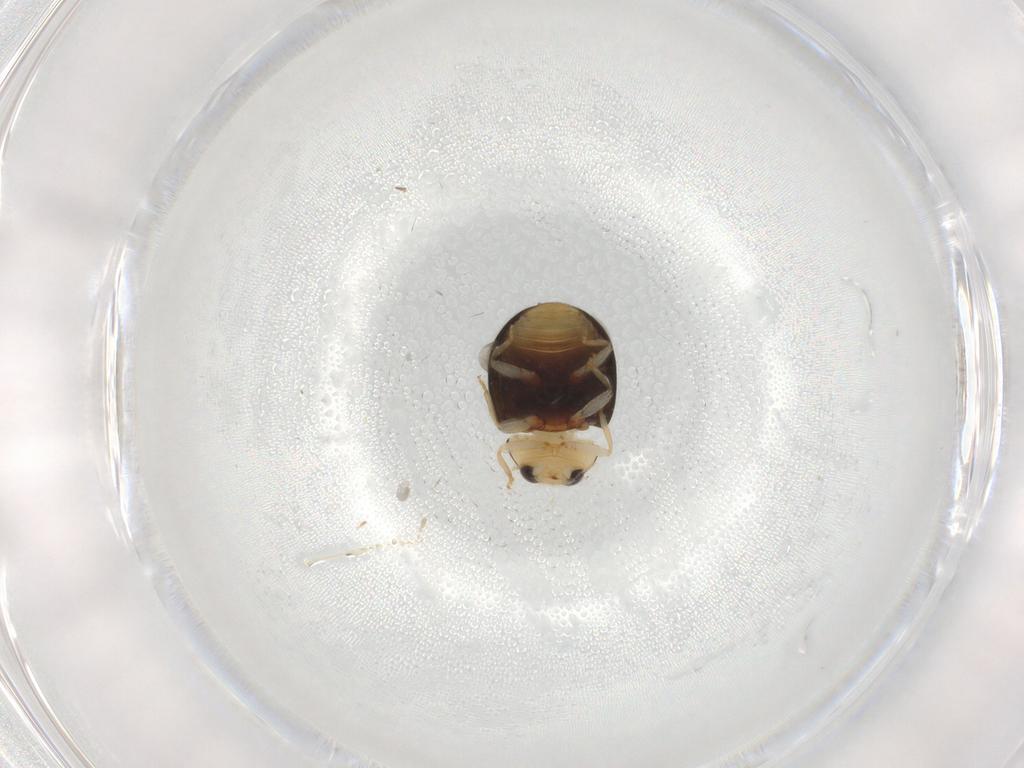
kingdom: Animalia
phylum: Arthropoda
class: Insecta
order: Coleoptera
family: Coccinellidae
